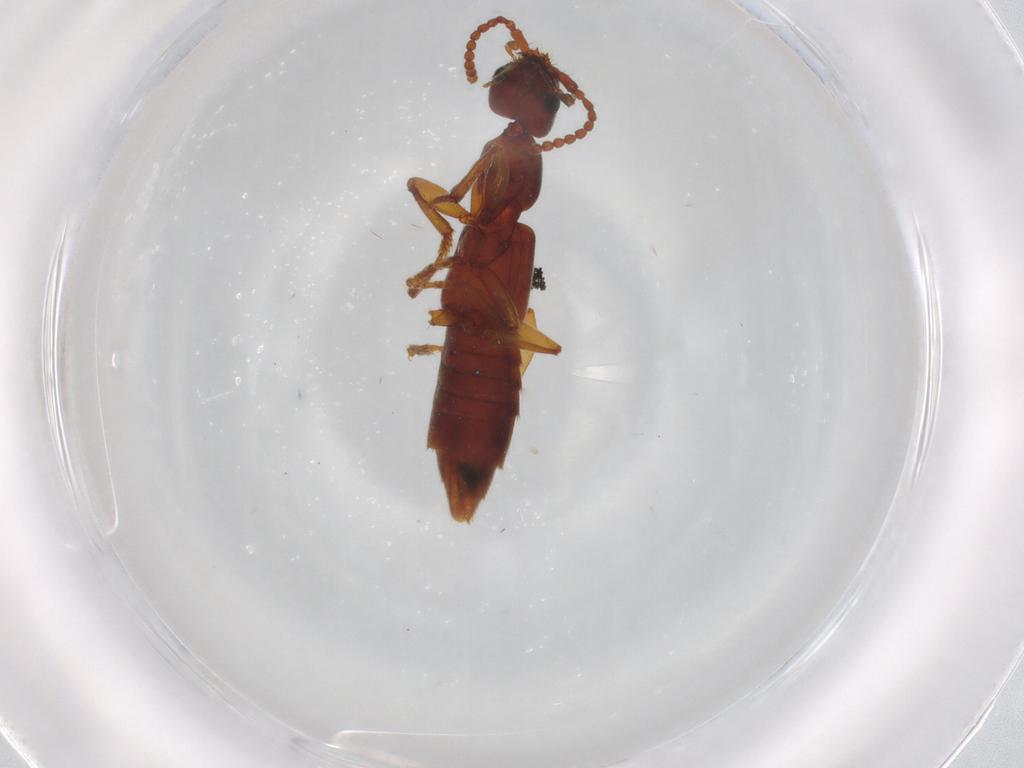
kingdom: Animalia
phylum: Arthropoda
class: Insecta
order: Coleoptera
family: Staphylinidae
